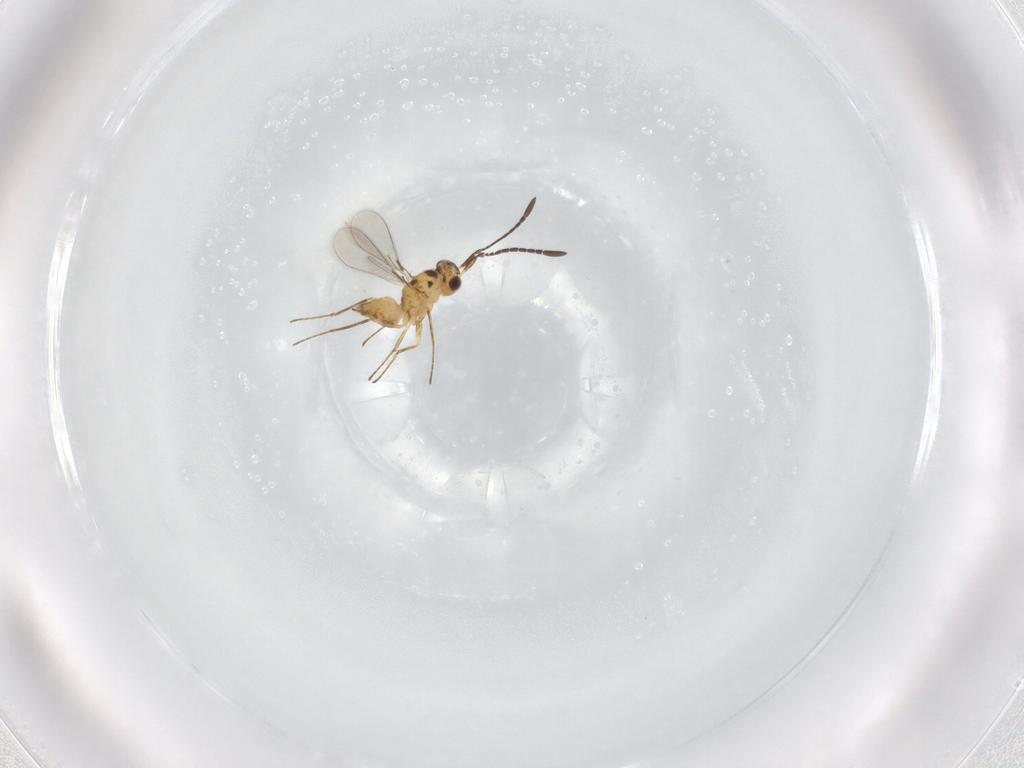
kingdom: Animalia
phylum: Arthropoda
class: Insecta
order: Hymenoptera
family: Mymaridae
